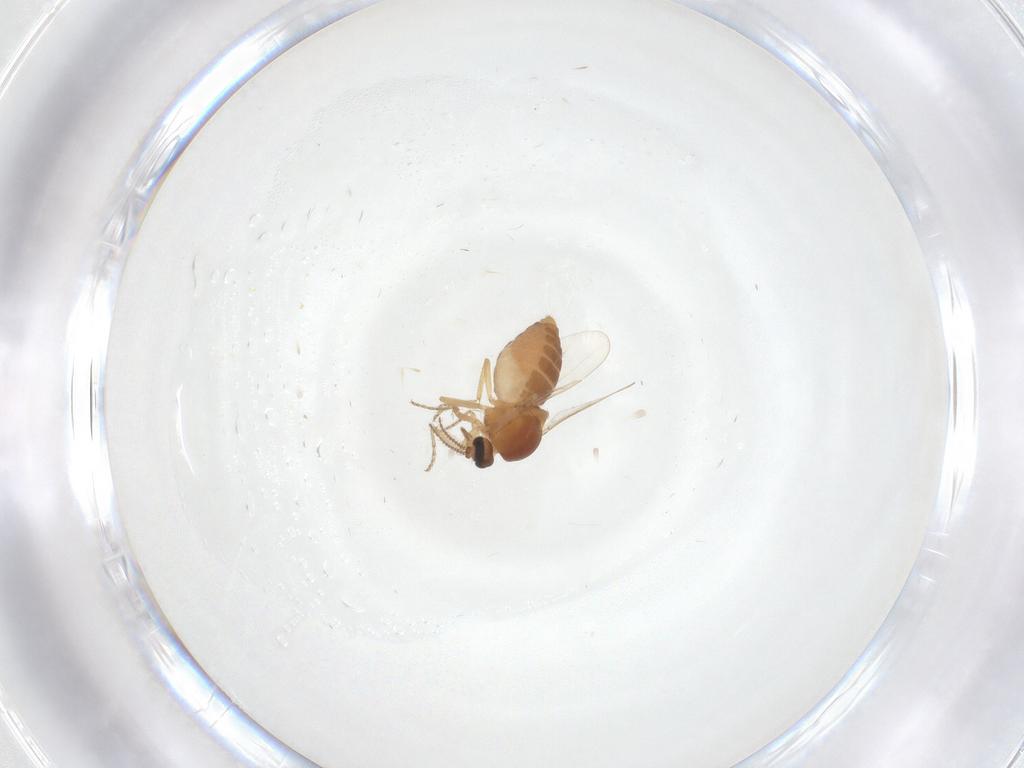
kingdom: Animalia
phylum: Arthropoda
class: Insecta
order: Diptera
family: Ceratopogonidae
